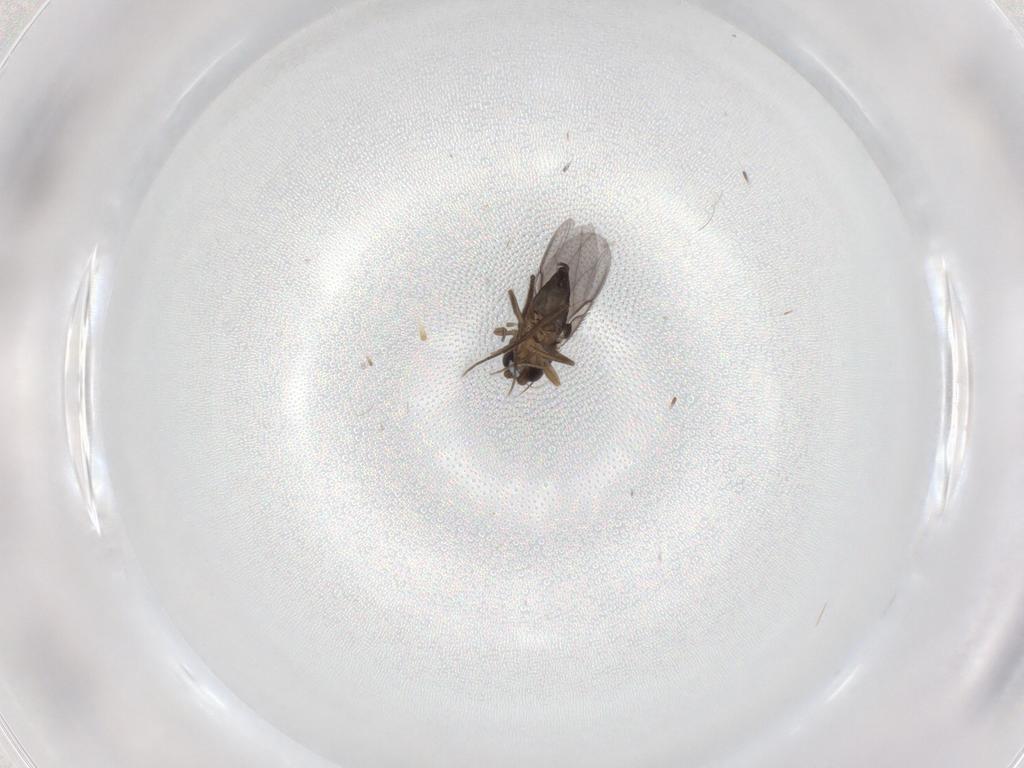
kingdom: Animalia
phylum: Arthropoda
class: Insecta
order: Diptera
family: Phoridae
